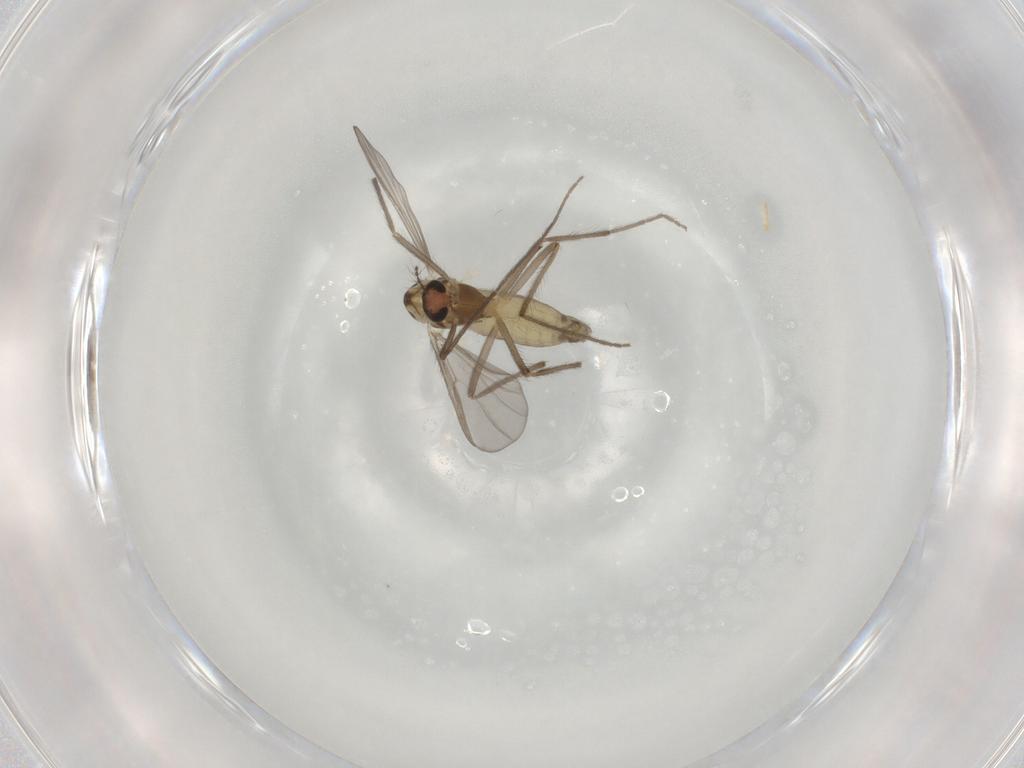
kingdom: Animalia
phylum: Arthropoda
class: Insecta
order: Diptera
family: Chironomidae
